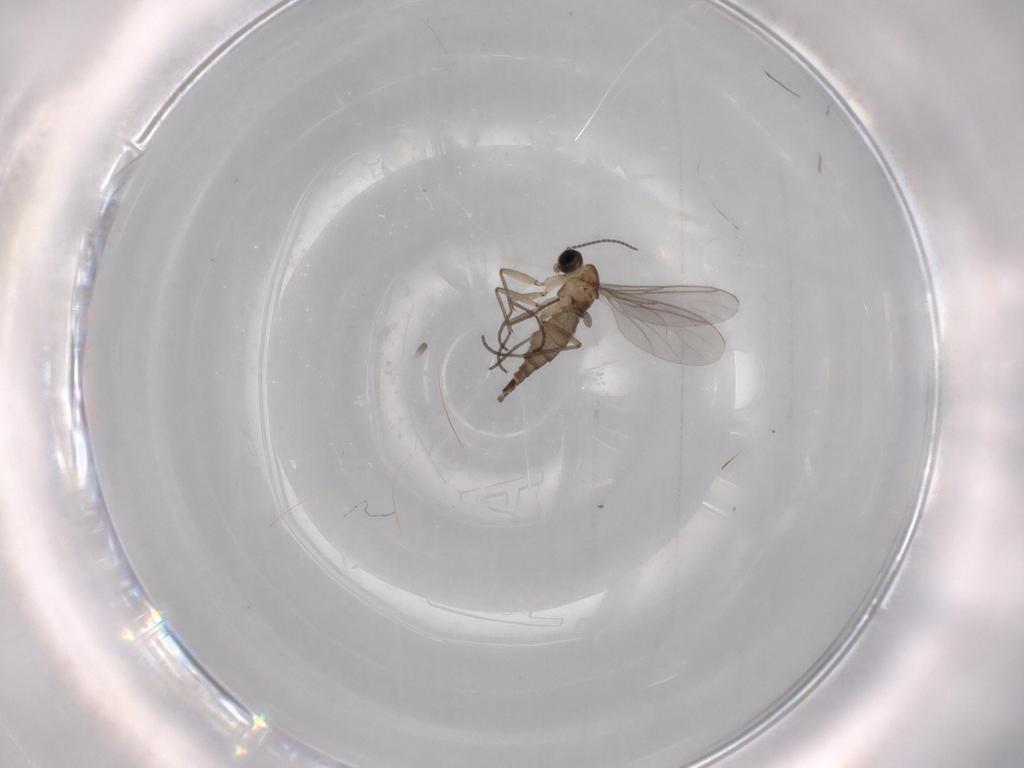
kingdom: Animalia
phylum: Arthropoda
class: Insecta
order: Diptera
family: Sciaridae
